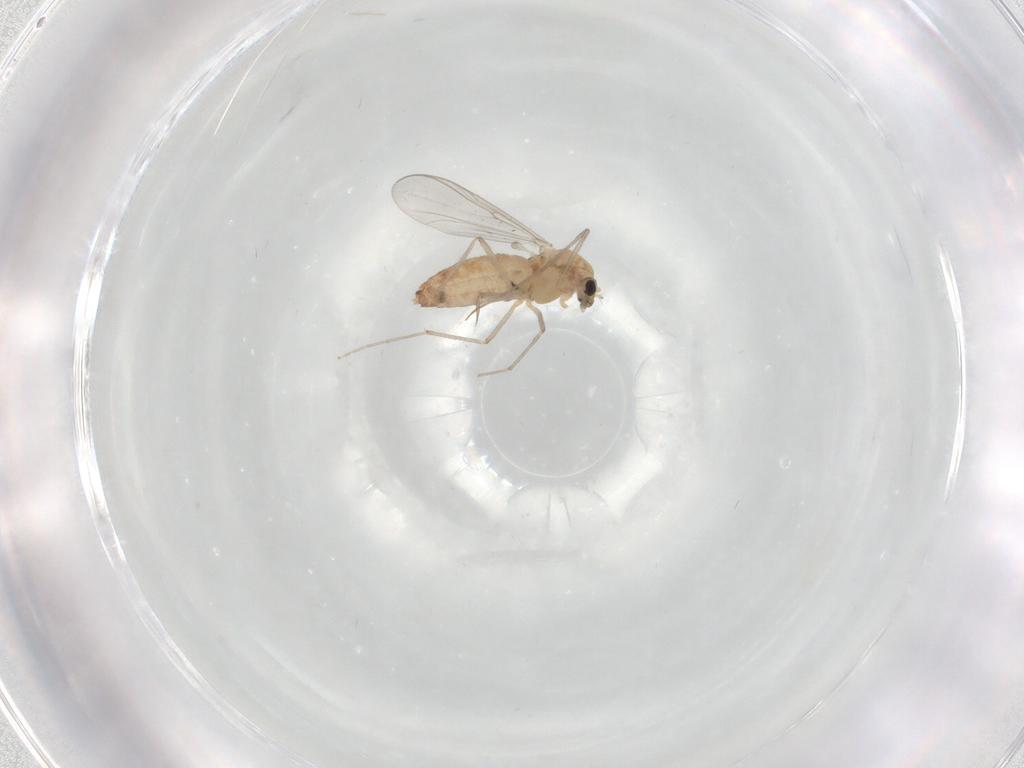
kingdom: Animalia
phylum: Arthropoda
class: Insecta
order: Diptera
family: Chironomidae
